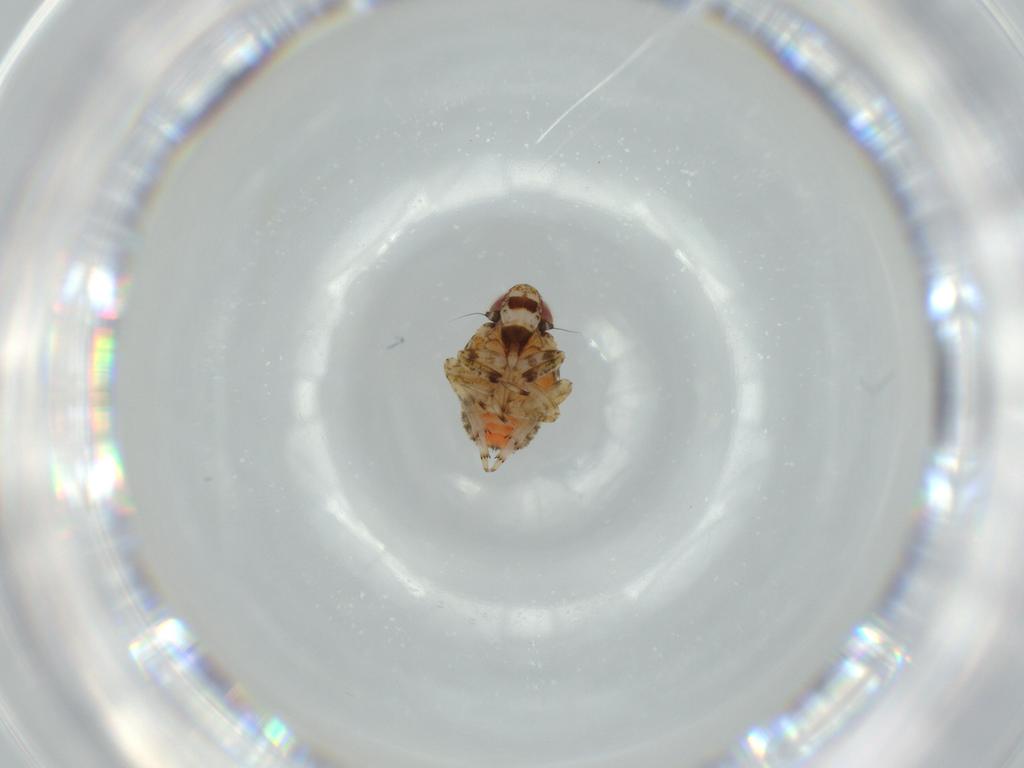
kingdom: Animalia
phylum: Arthropoda
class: Insecta
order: Hemiptera
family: Issidae
